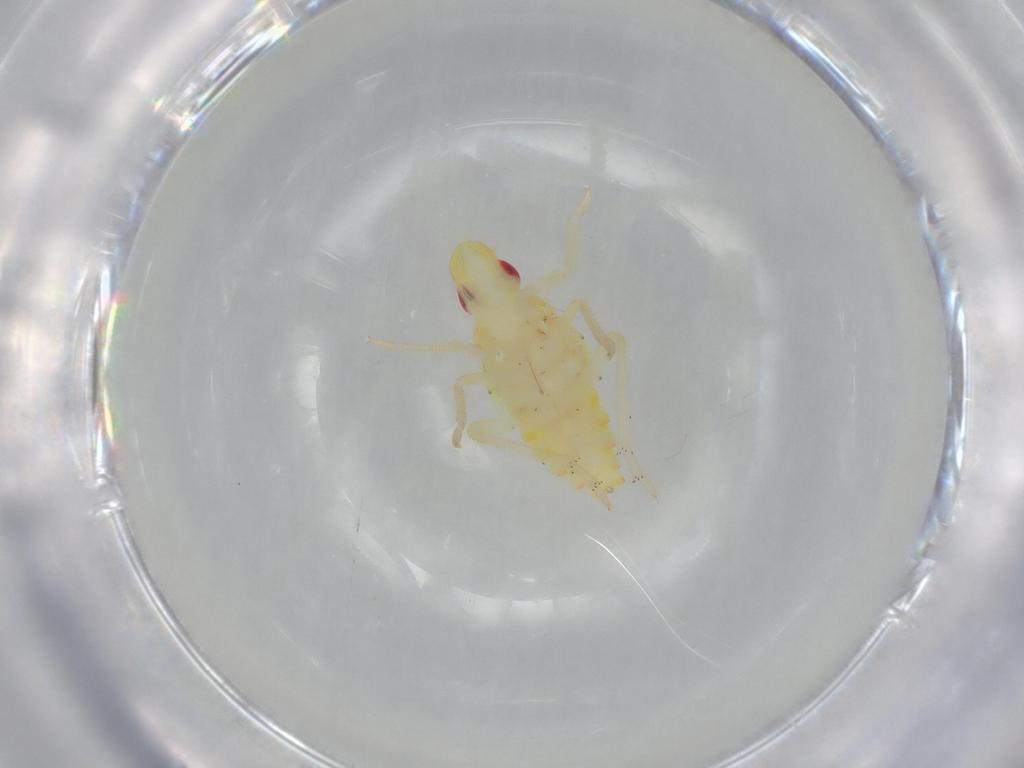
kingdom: Animalia
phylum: Arthropoda
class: Insecta
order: Hemiptera
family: Tropiduchidae
